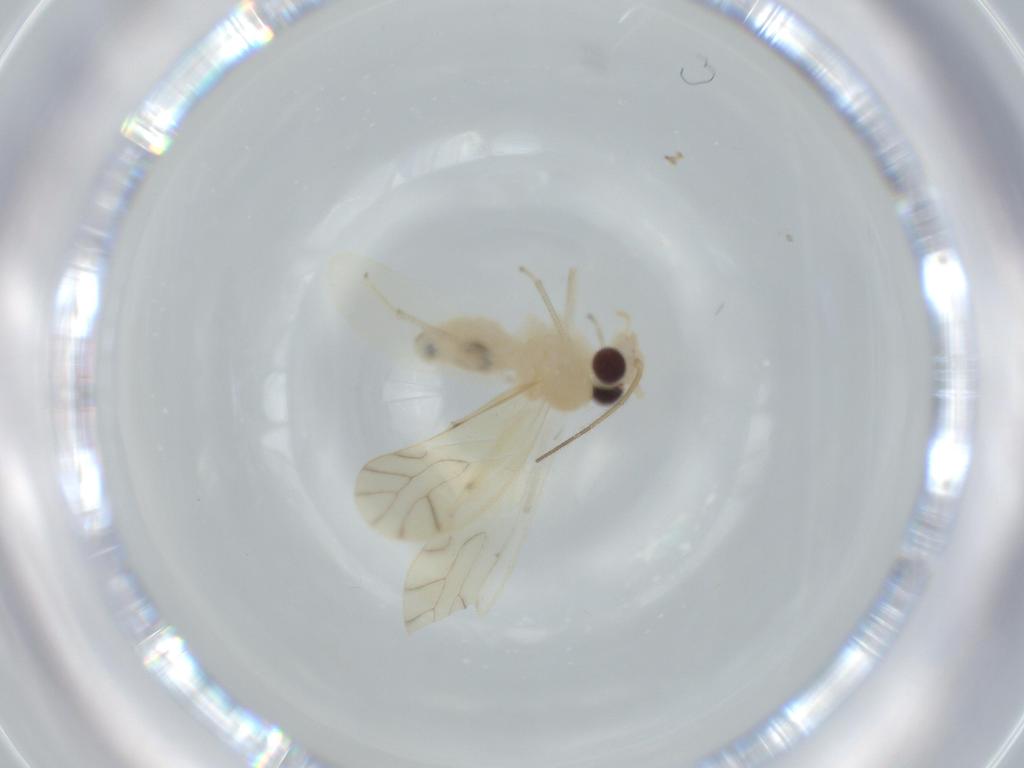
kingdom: Animalia
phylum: Arthropoda
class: Insecta
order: Psocodea
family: Caeciliusidae
